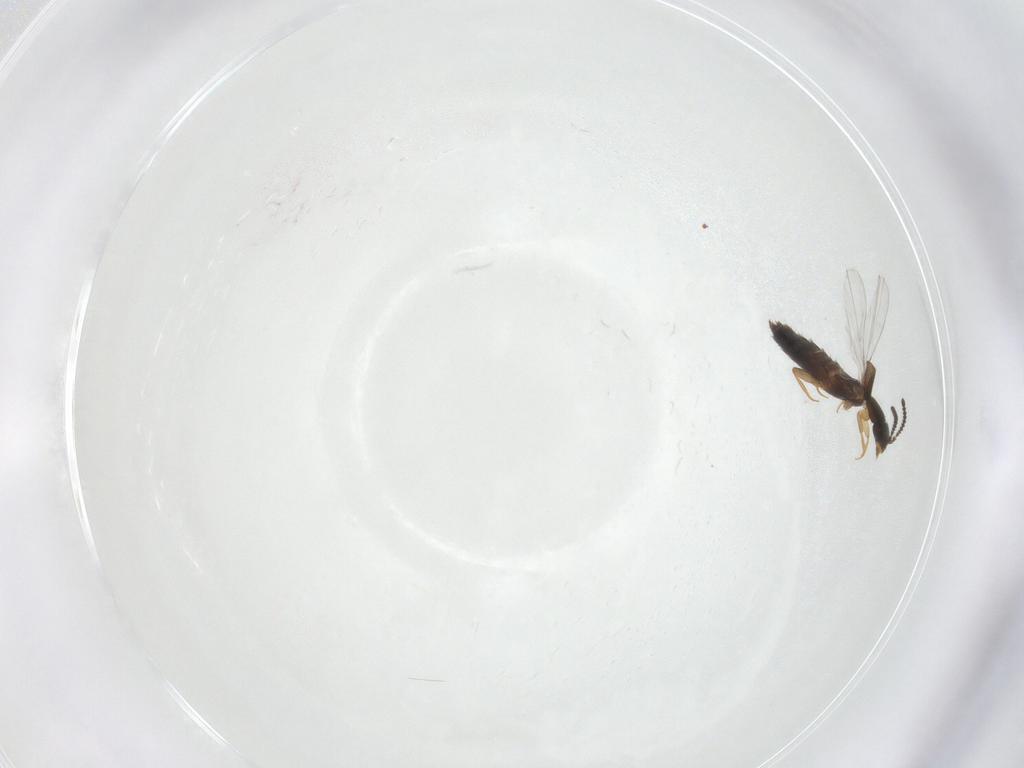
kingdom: Animalia
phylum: Arthropoda
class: Insecta
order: Coleoptera
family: Staphylinidae
